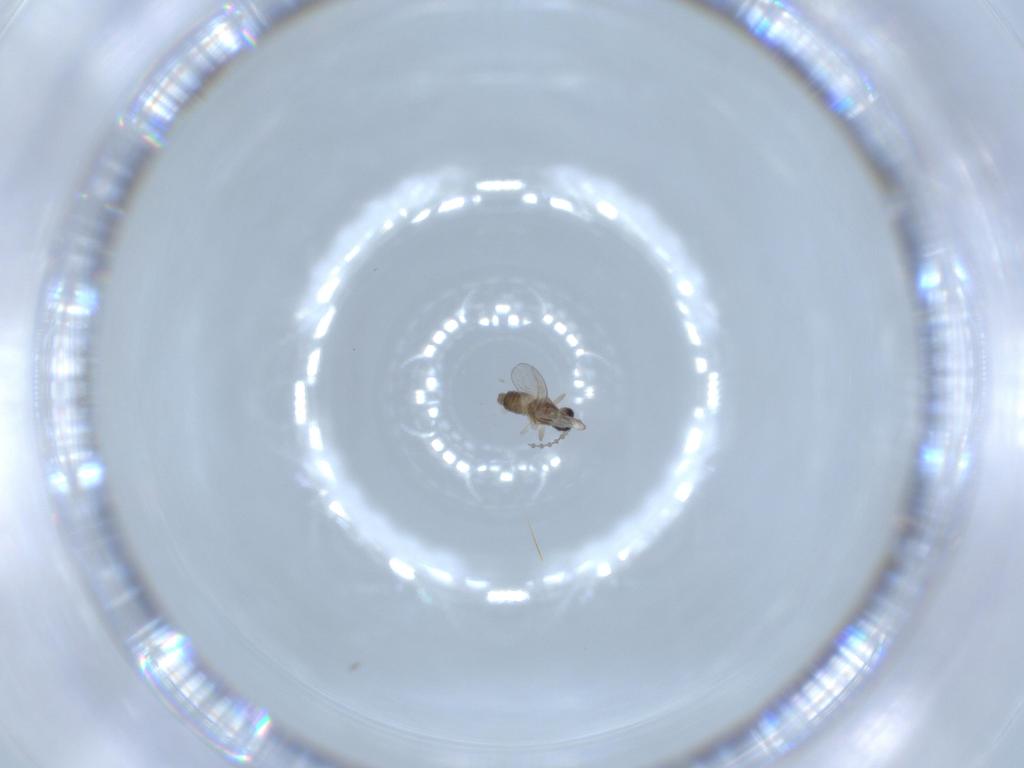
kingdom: Animalia
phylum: Arthropoda
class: Insecta
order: Diptera
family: Cecidomyiidae
